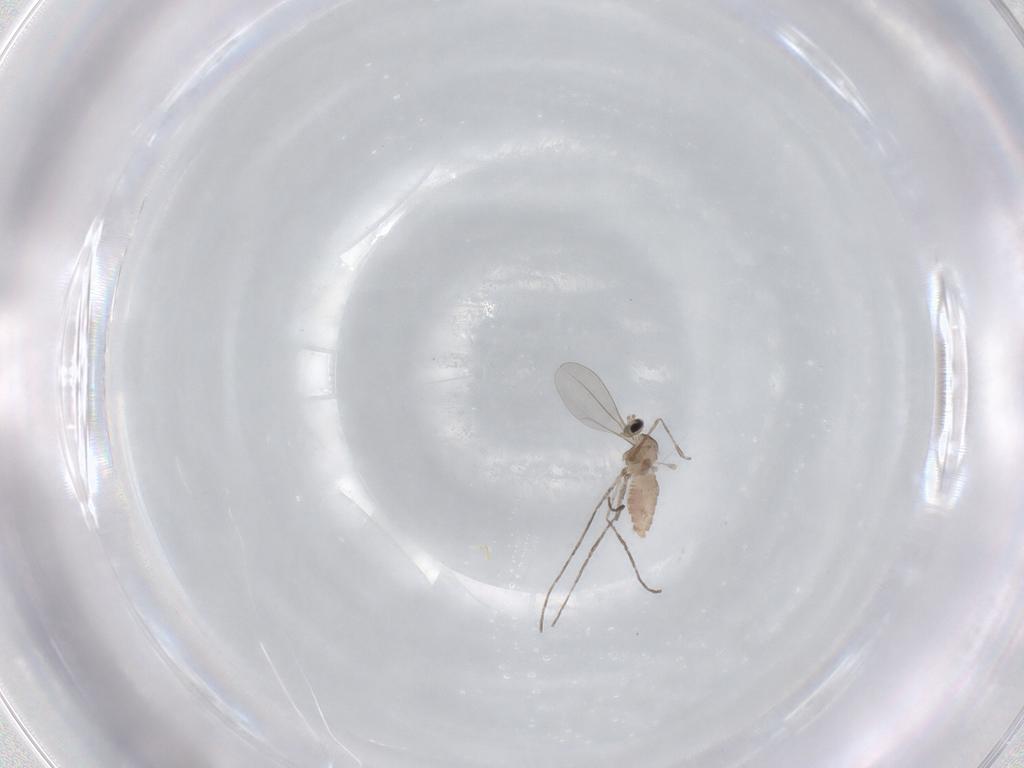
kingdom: Animalia
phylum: Arthropoda
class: Insecta
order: Diptera
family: Cecidomyiidae
